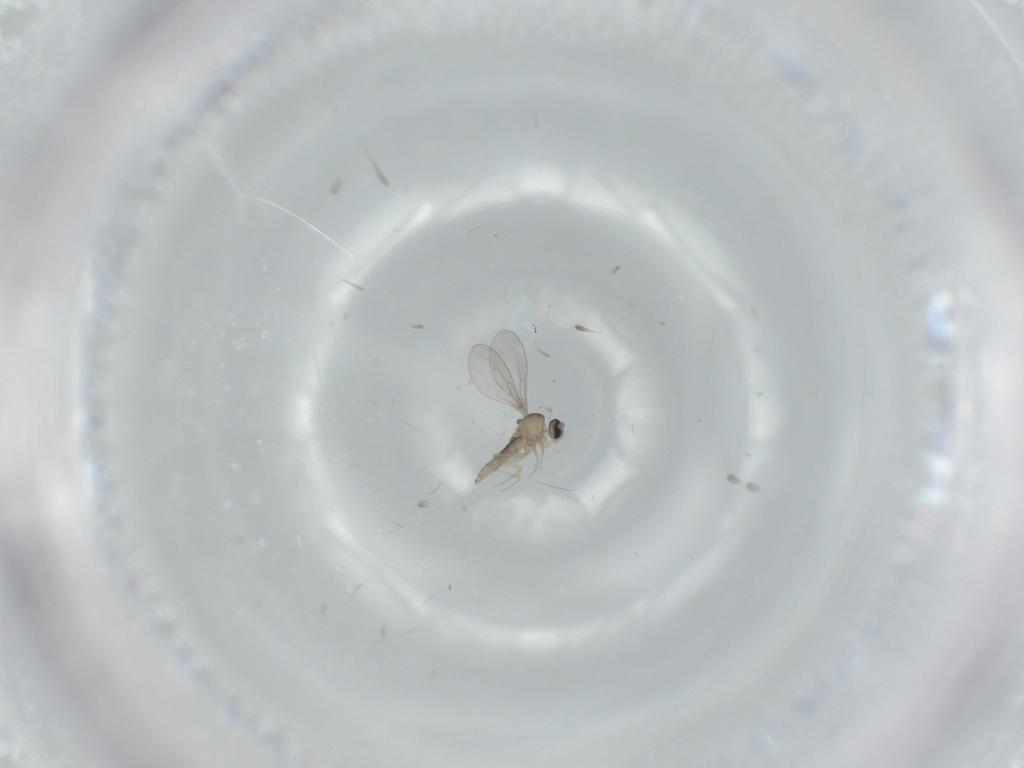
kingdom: Animalia
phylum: Arthropoda
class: Insecta
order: Diptera
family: Cecidomyiidae
